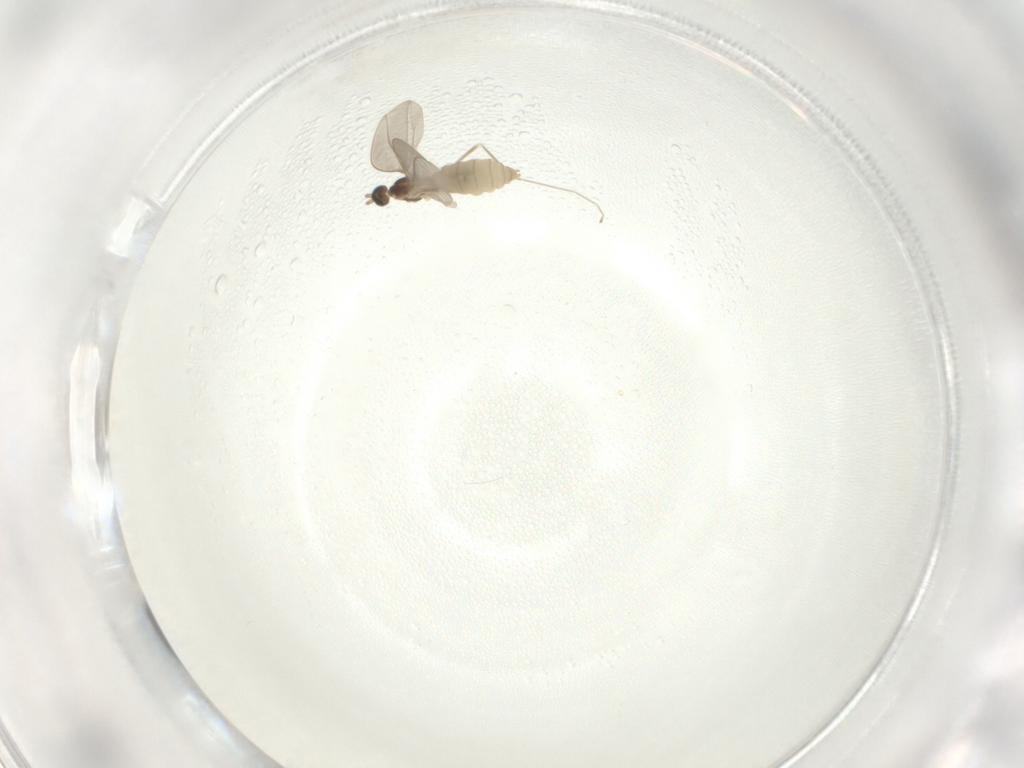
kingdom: Animalia
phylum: Arthropoda
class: Insecta
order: Diptera
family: Cecidomyiidae
